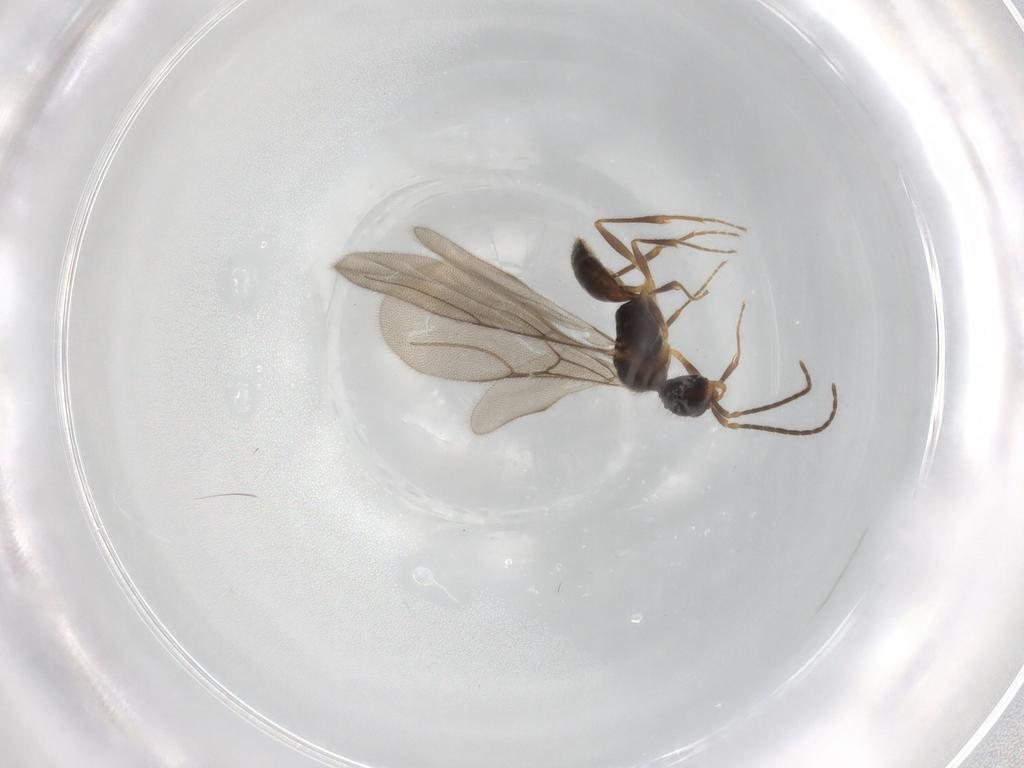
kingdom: Animalia
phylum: Arthropoda
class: Insecta
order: Hymenoptera
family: Bethylidae
